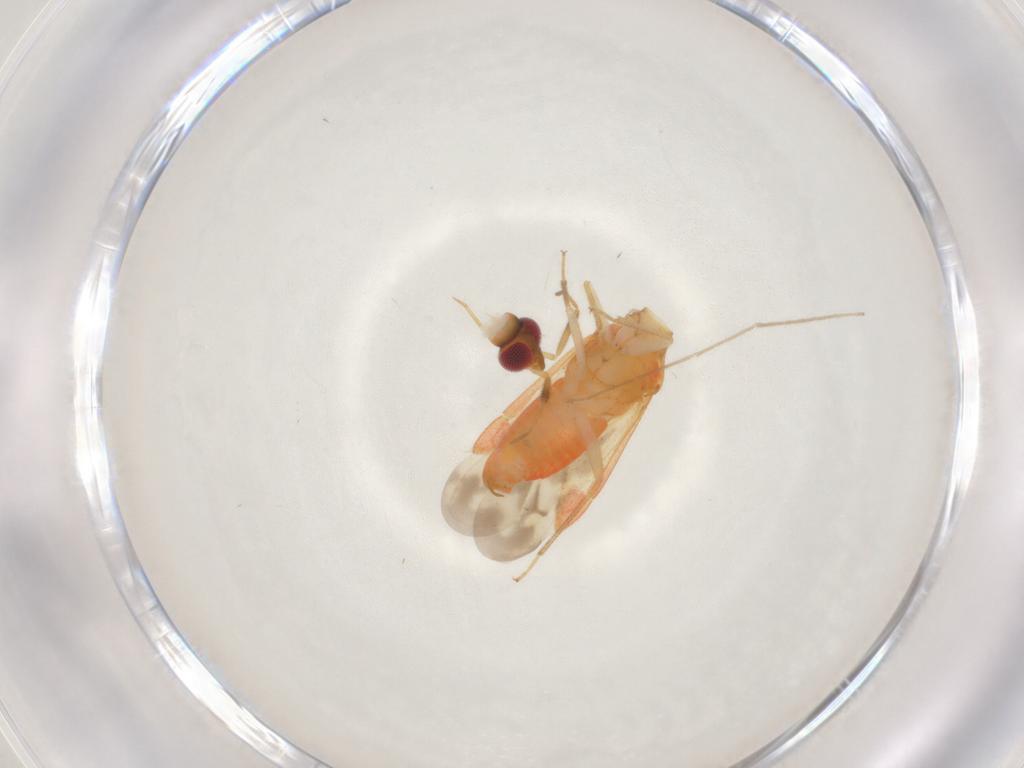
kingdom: Animalia
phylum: Arthropoda
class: Insecta
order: Hemiptera
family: Miridae
